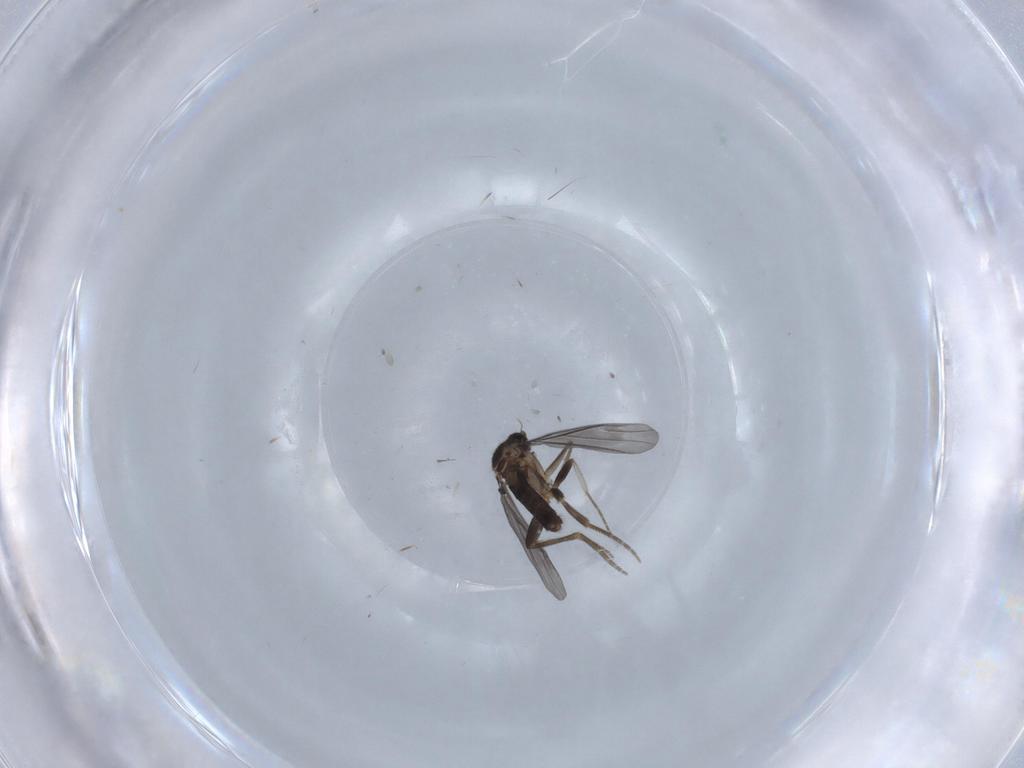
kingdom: Animalia
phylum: Arthropoda
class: Insecta
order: Diptera
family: Phoridae
